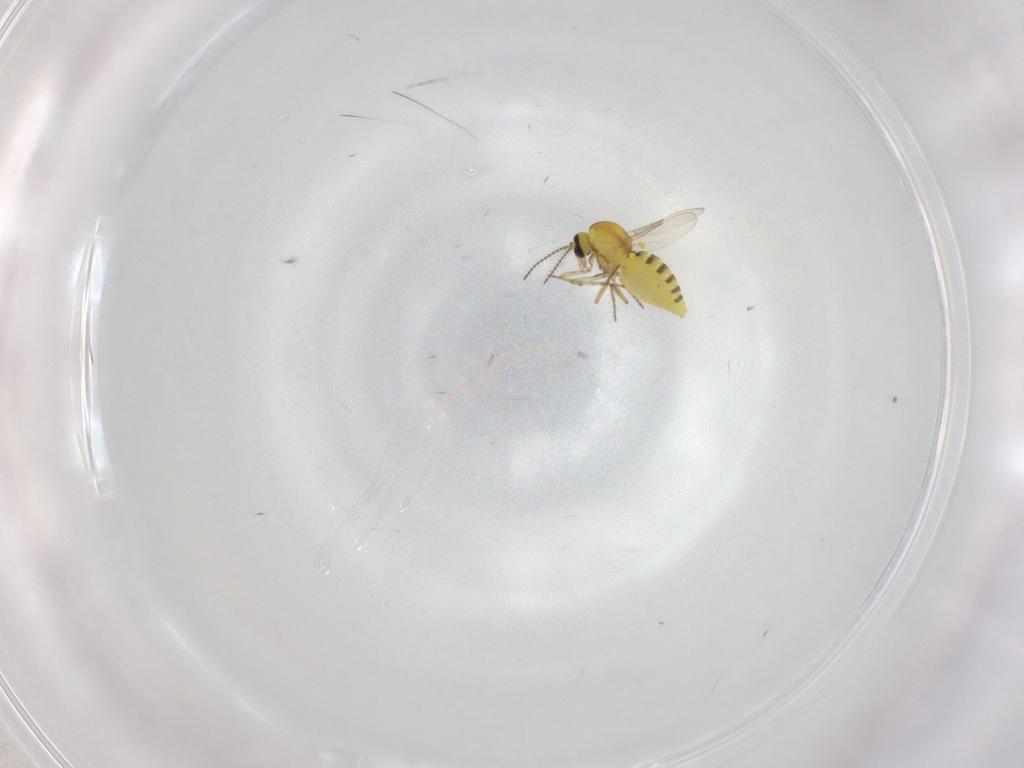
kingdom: Animalia
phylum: Arthropoda
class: Insecta
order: Diptera
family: Ceratopogonidae
